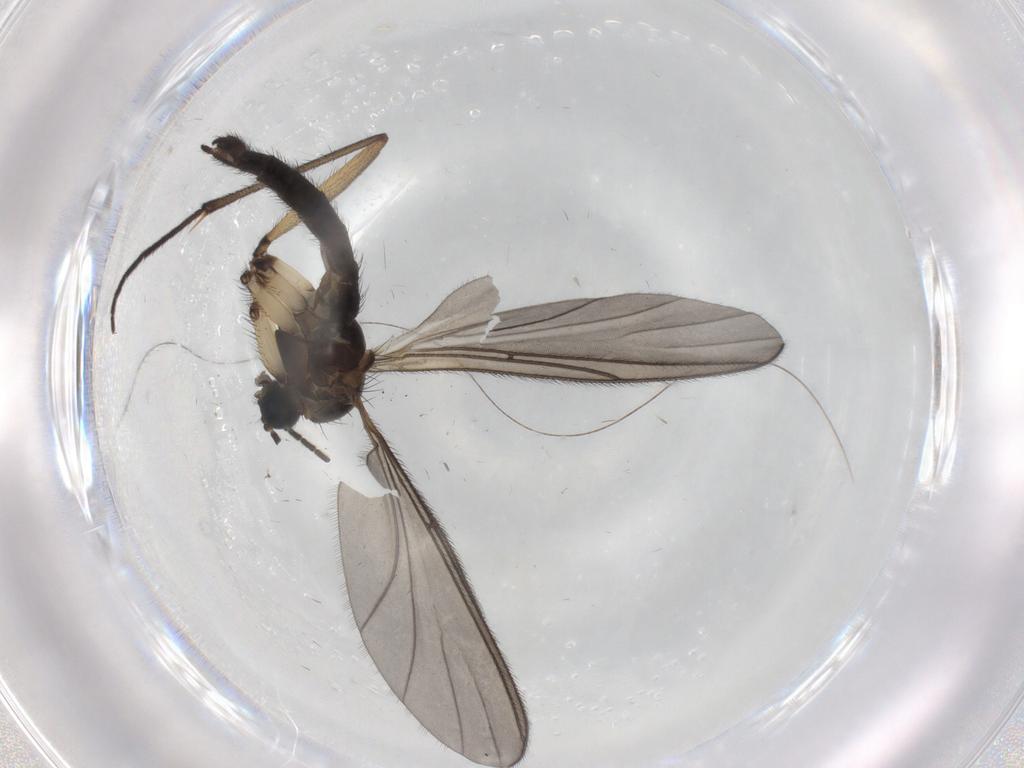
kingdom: Animalia
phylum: Arthropoda
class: Insecta
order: Diptera
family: Sciaridae
